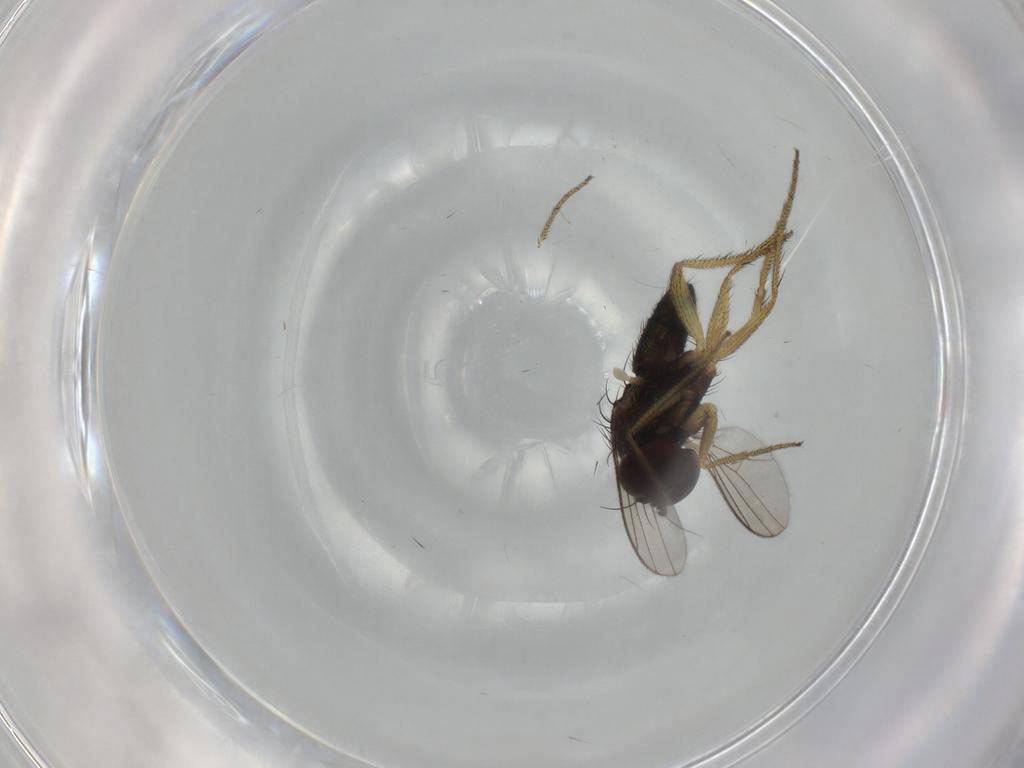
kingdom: Animalia
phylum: Arthropoda
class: Insecta
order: Diptera
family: Dolichopodidae
